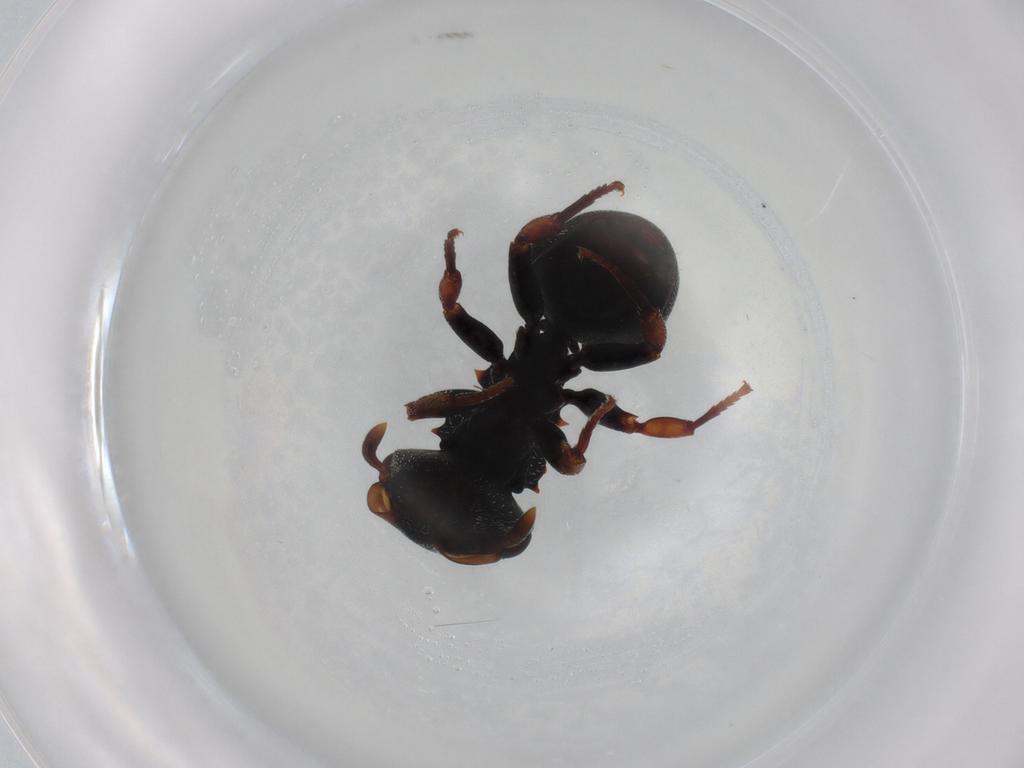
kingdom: Animalia
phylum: Arthropoda
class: Insecta
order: Hymenoptera
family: Formicidae
